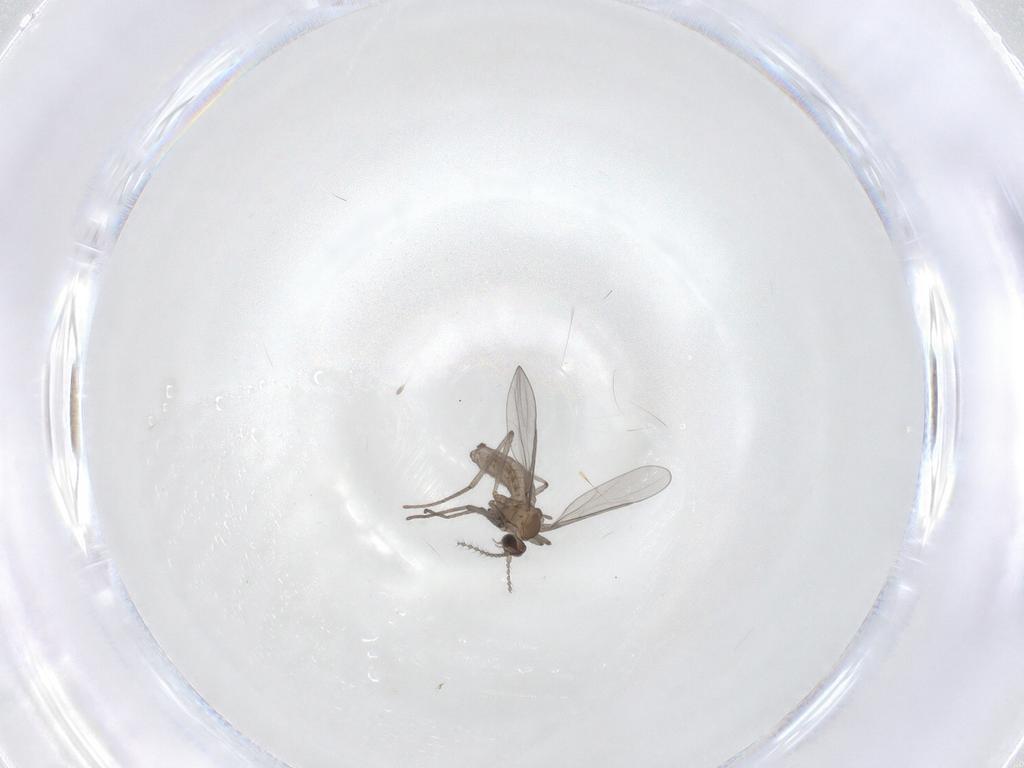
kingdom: Animalia
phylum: Arthropoda
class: Insecta
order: Diptera
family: Cecidomyiidae
